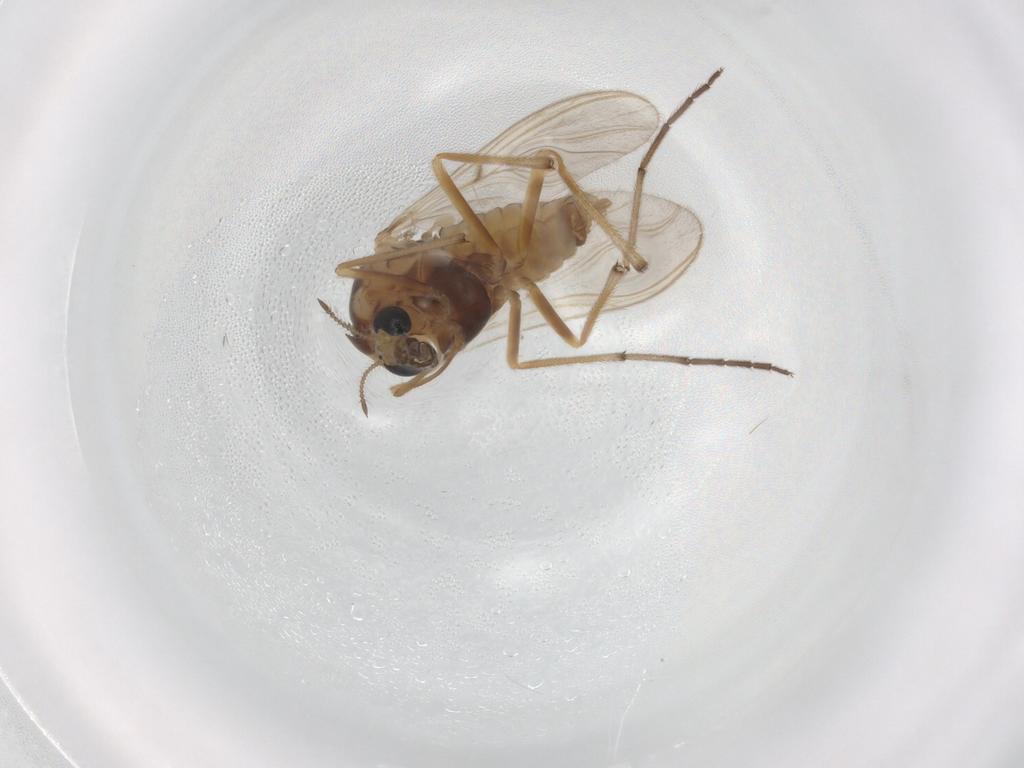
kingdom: Animalia
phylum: Arthropoda
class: Insecta
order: Diptera
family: Chironomidae
